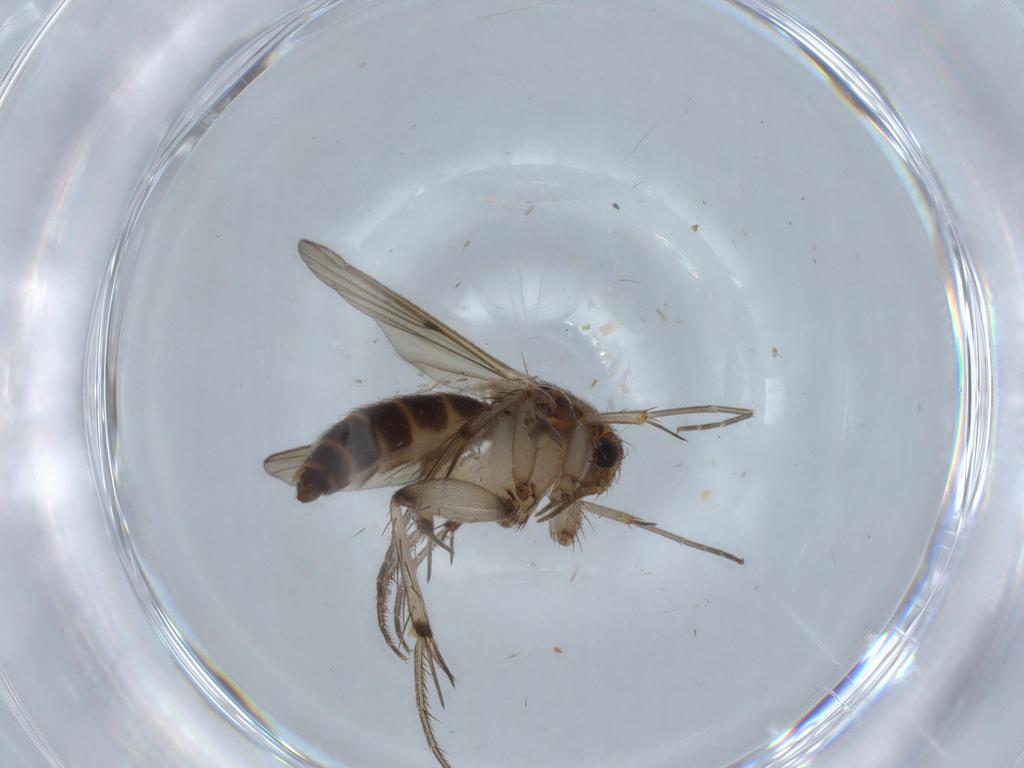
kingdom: Animalia
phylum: Arthropoda
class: Insecta
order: Diptera
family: Mycetophilidae
